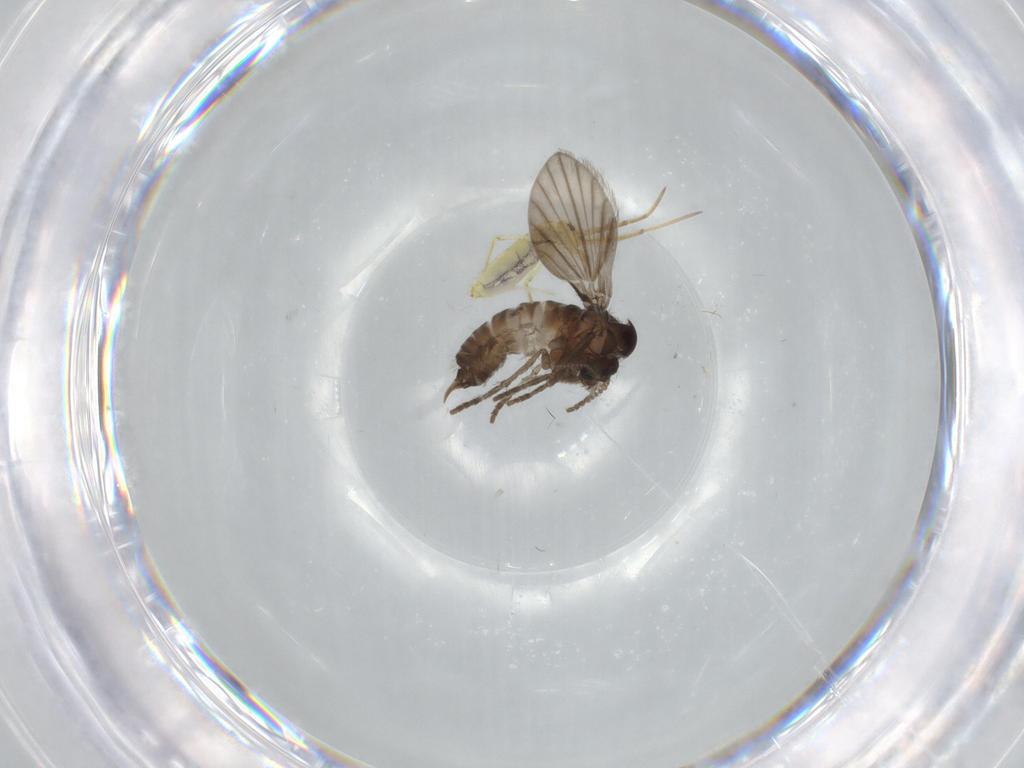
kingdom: Animalia
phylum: Arthropoda
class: Insecta
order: Diptera
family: Psychodidae
